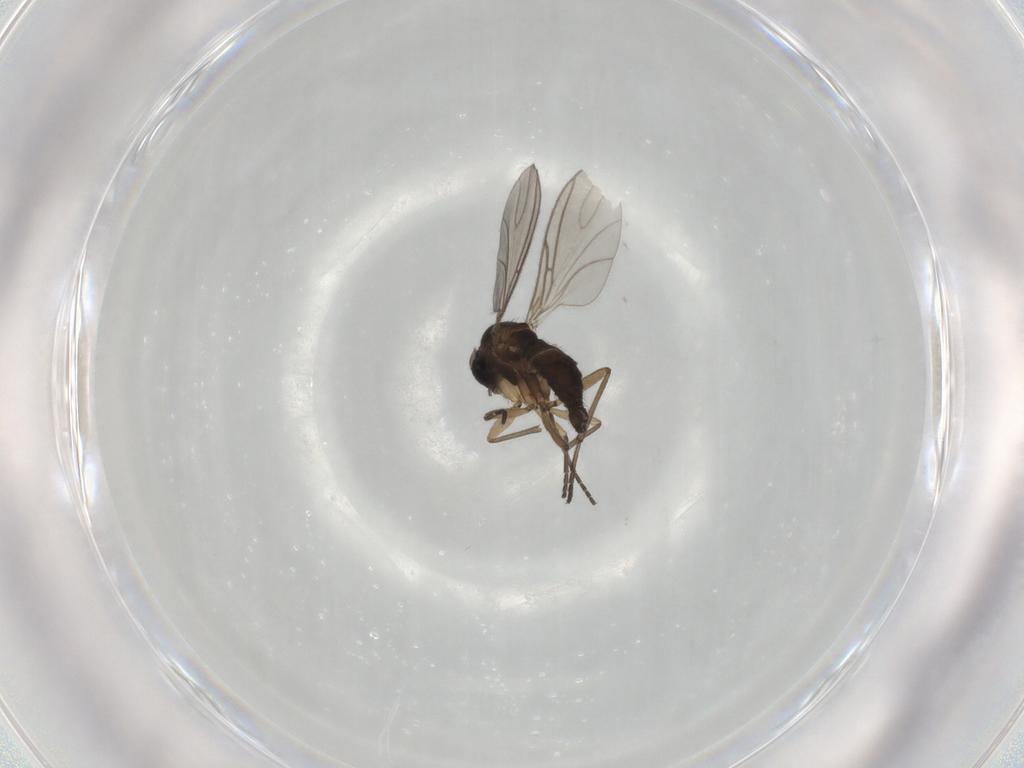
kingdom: Animalia
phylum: Arthropoda
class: Insecta
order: Diptera
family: Sciaridae
